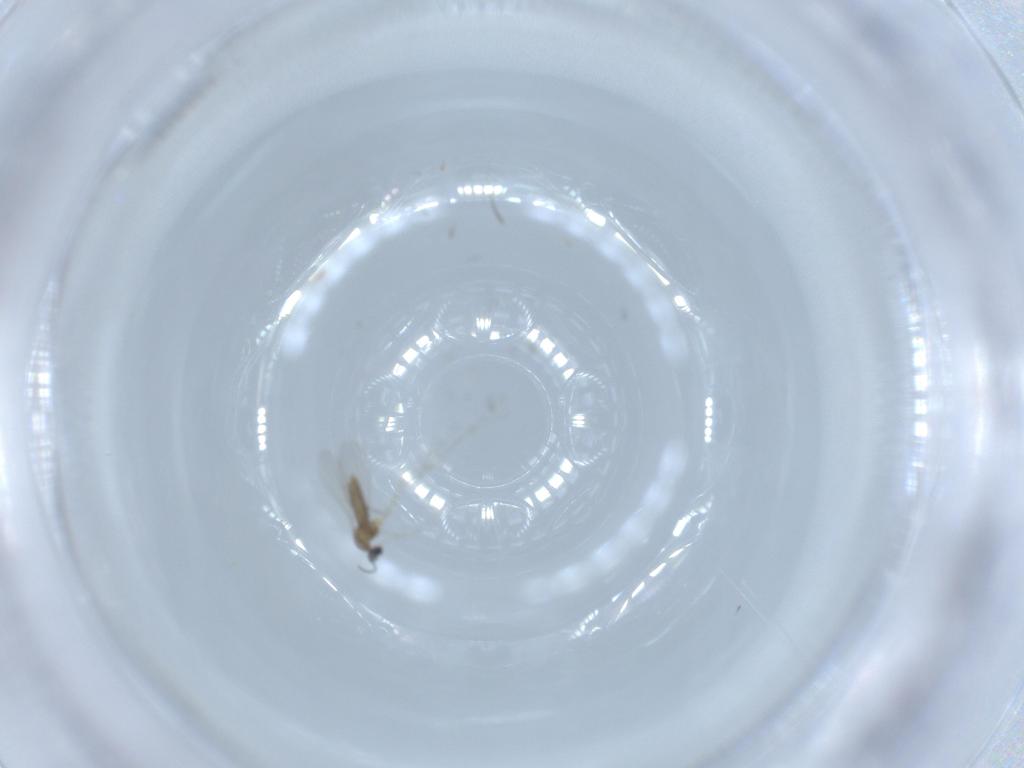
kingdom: Animalia
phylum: Arthropoda
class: Insecta
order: Diptera
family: Cecidomyiidae
